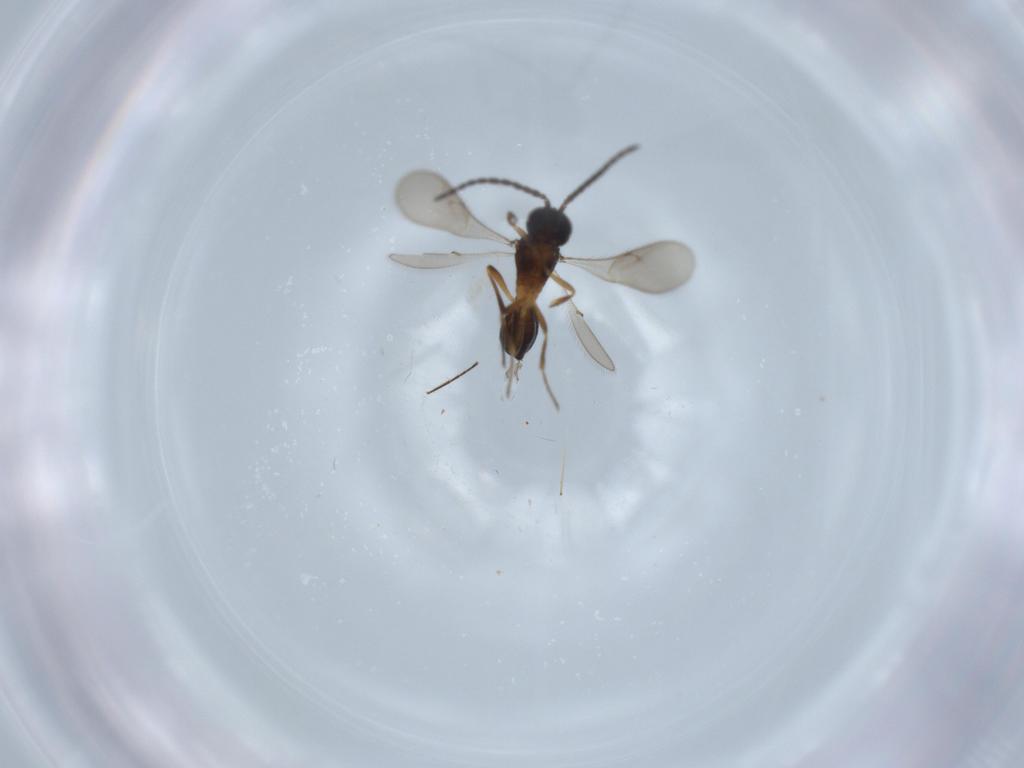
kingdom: Animalia
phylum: Arthropoda
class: Insecta
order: Hymenoptera
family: Scelionidae
